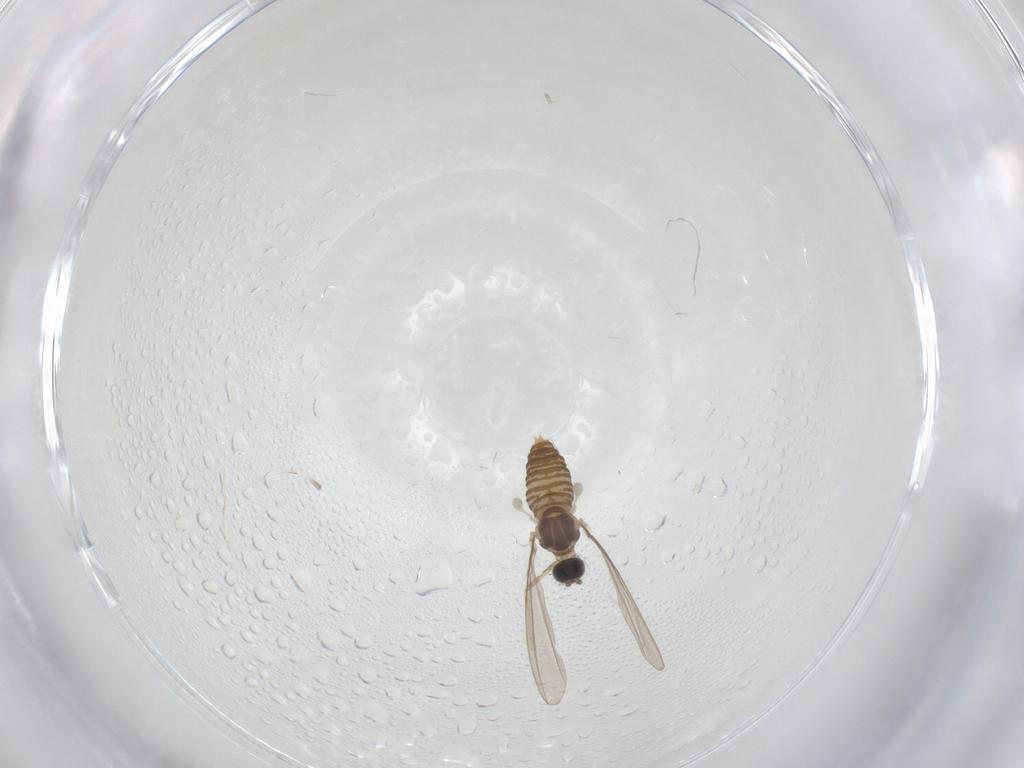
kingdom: Animalia
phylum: Arthropoda
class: Insecta
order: Diptera
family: Cecidomyiidae
